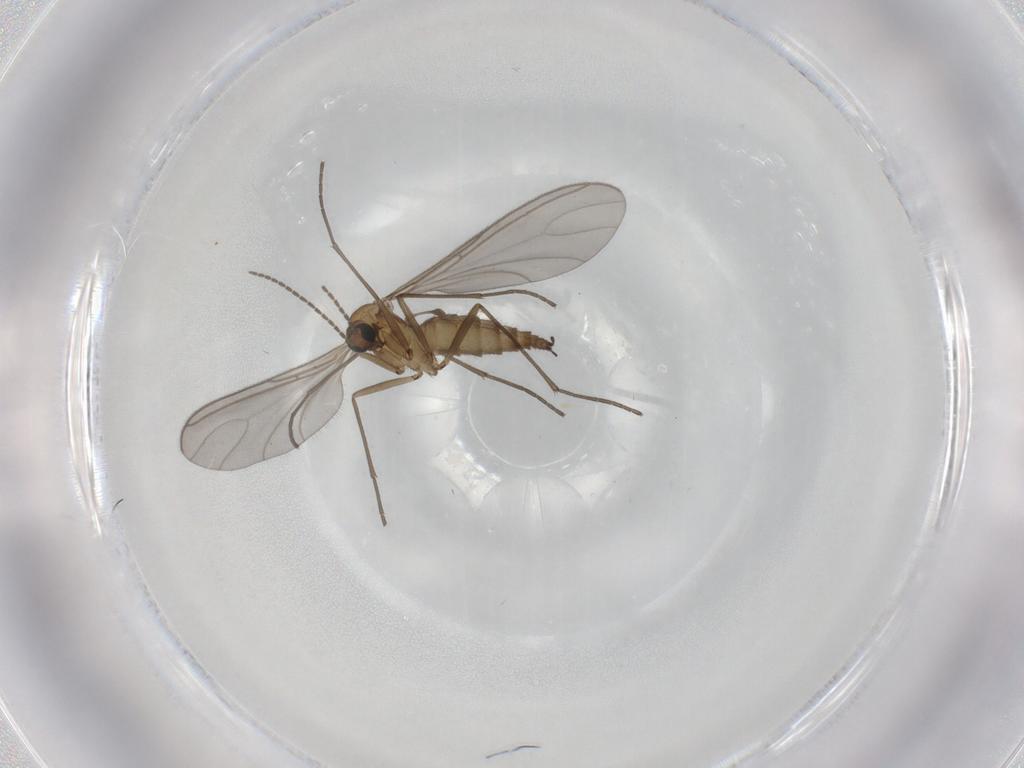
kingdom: Animalia
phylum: Arthropoda
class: Insecta
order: Diptera
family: Sciaridae
